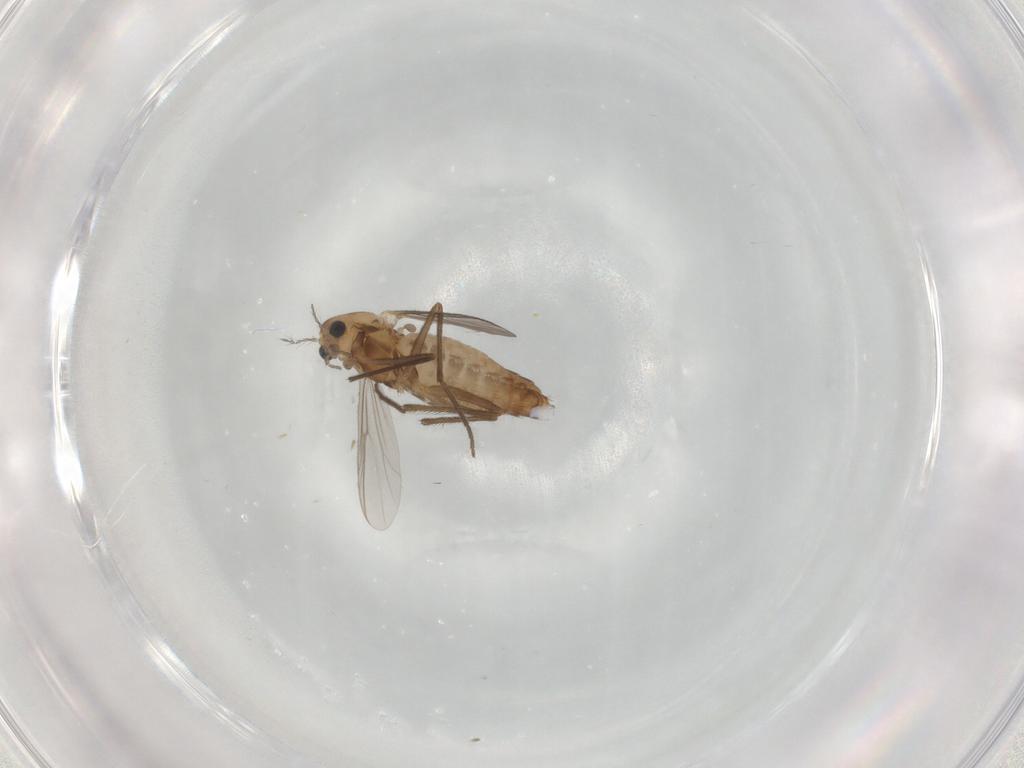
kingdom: Animalia
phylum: Arthropoda
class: Insecta
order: Diptera
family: Chironomidae
